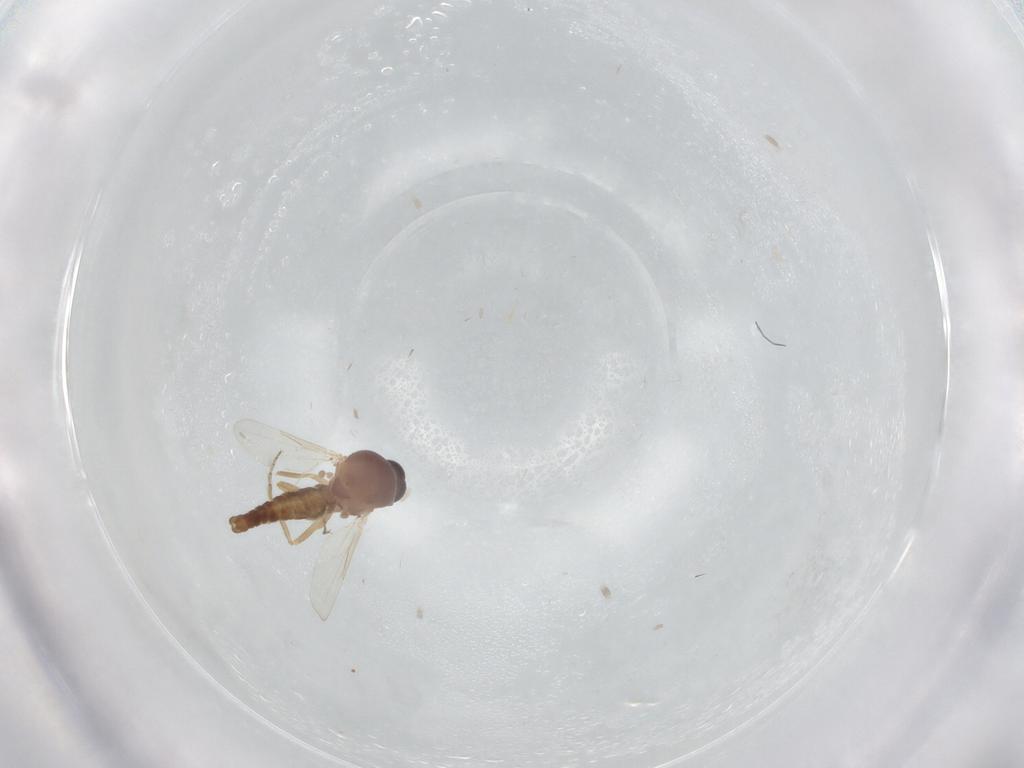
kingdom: Animalia
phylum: Arthropoda
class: Insecta
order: Diptera
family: Ceratopogonidae
